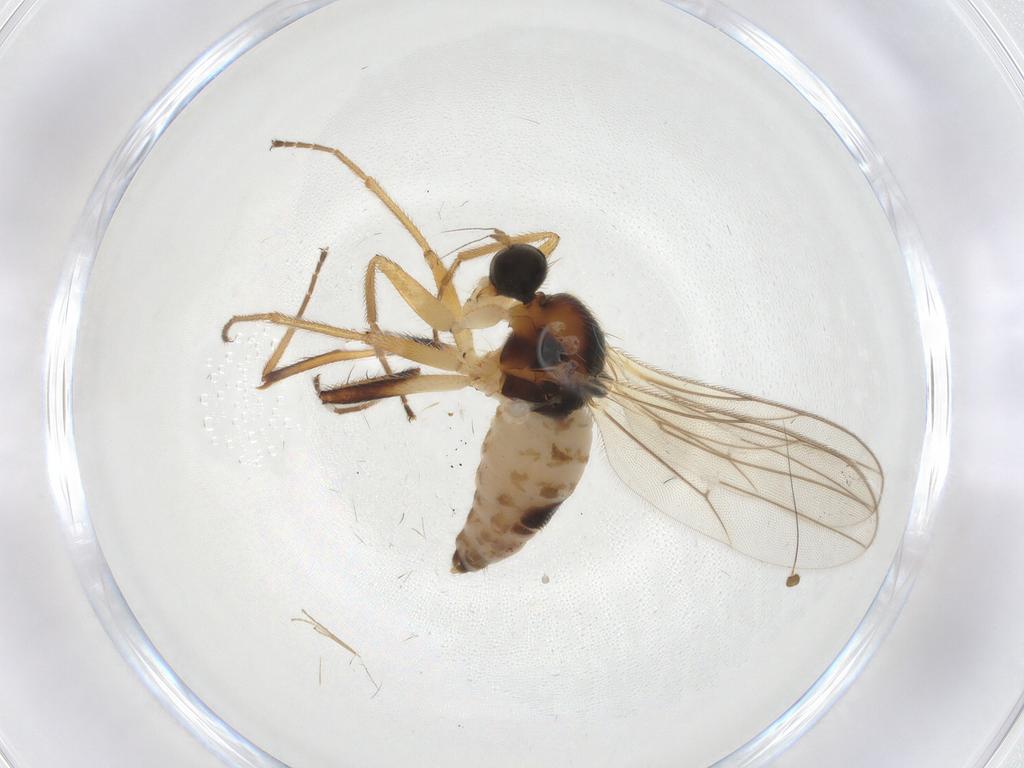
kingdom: Animalia
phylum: Arthropoda
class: Insecta
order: Diptera
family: Hybotidae
